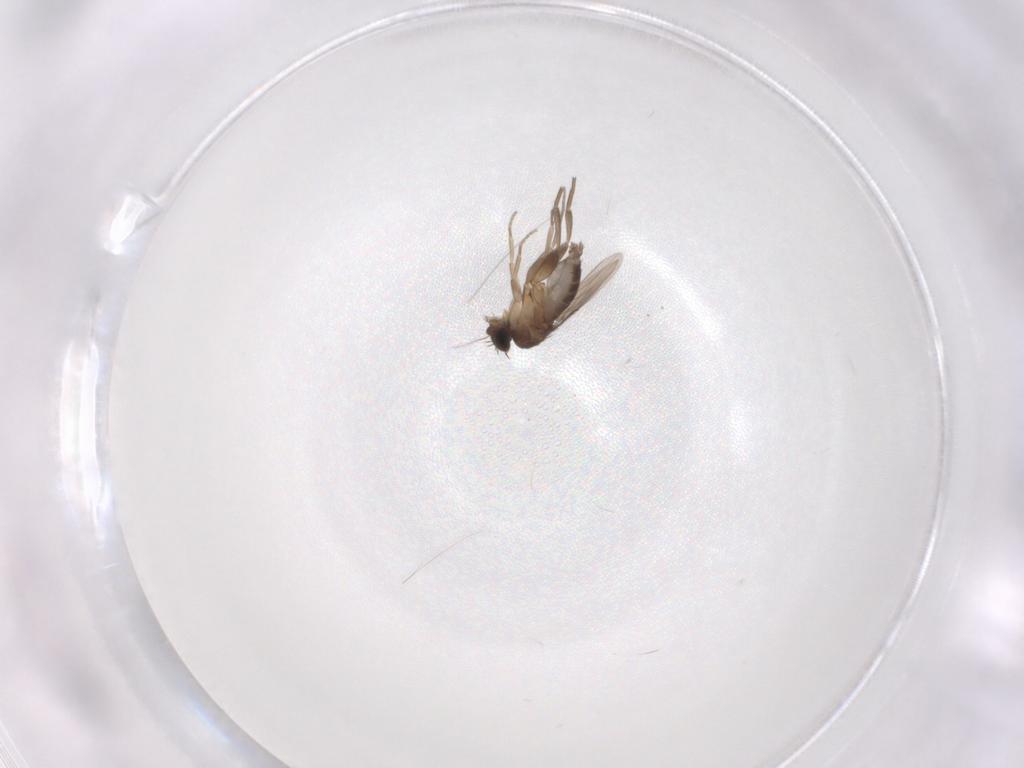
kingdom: Animalia
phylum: Arthropoda
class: Insecta
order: Diptera
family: Phoridae
